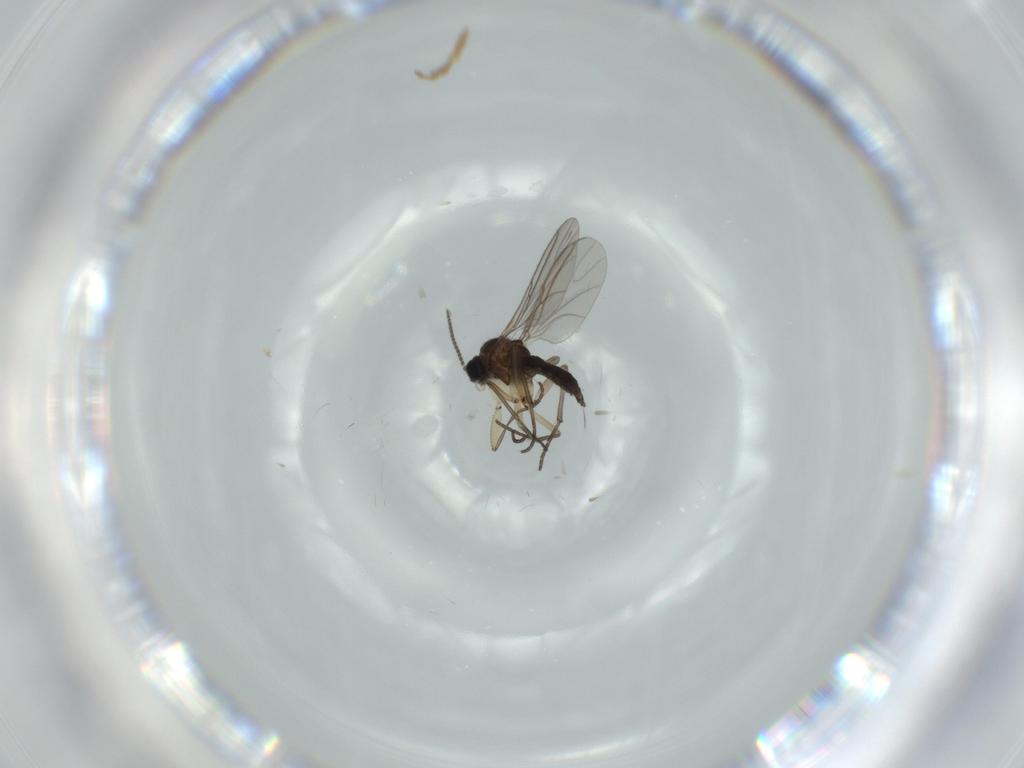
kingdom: Animalia
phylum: Arthropoda
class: Insecta
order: Diptera
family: Sciaridae
